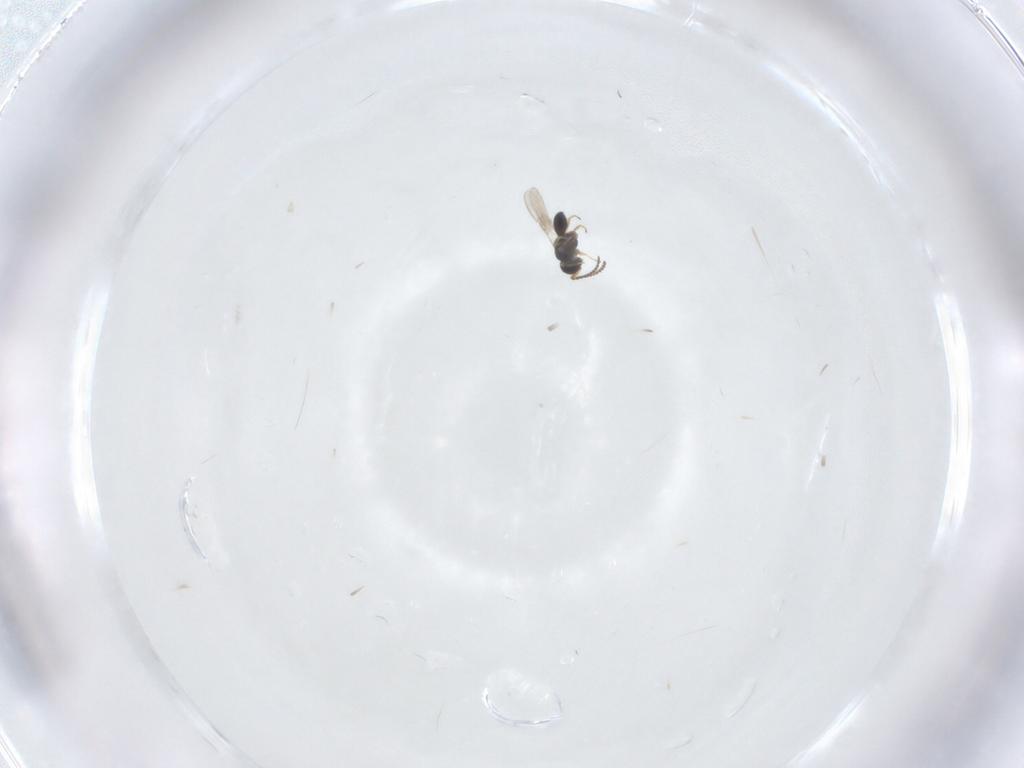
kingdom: Animalia
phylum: Arthropoda
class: Insecta
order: Hymenoptera
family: Scelionidae
